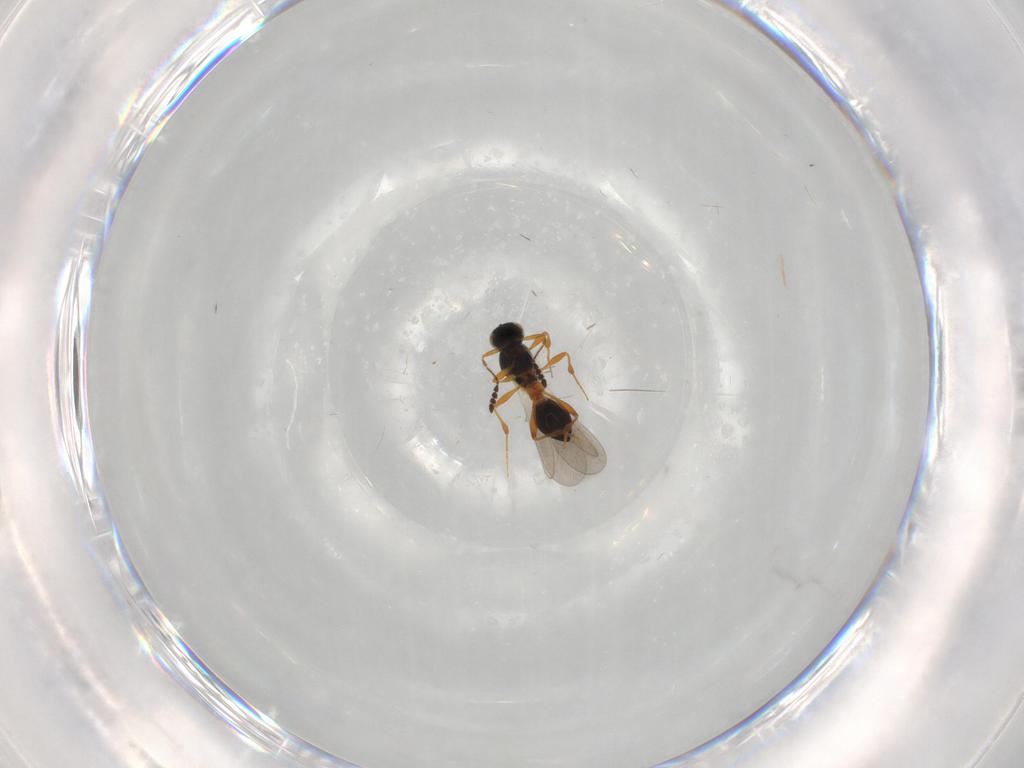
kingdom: Animalia
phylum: Arthropoda
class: Insecta
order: Hymenoptera
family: Platygastridae
